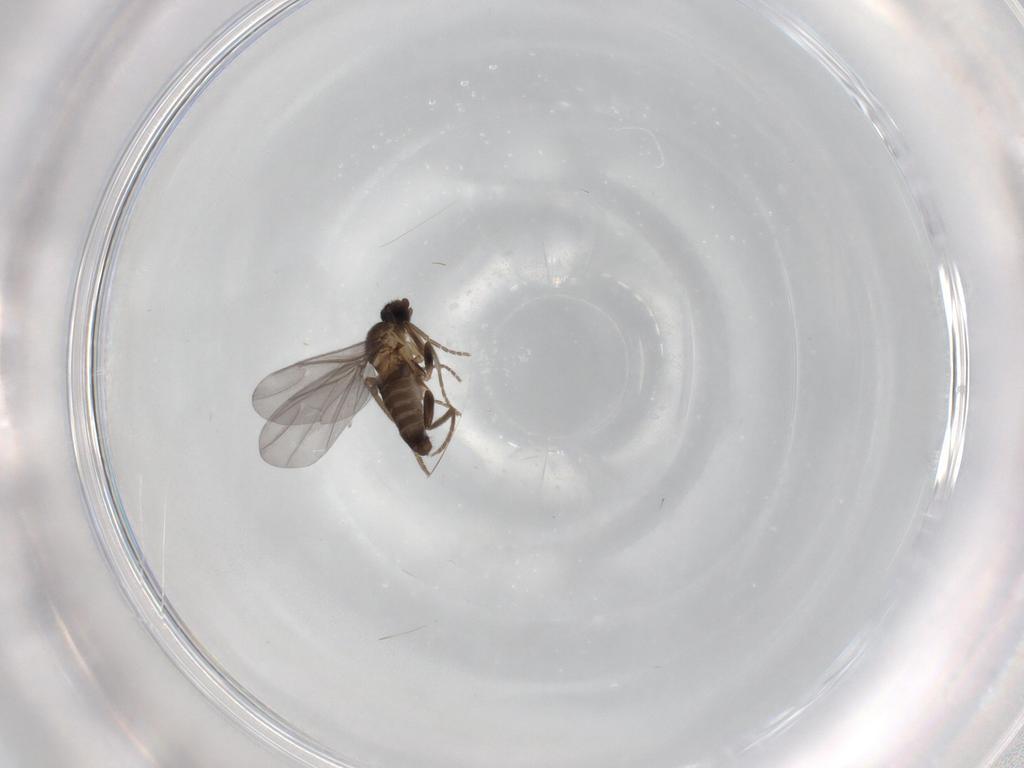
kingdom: Animalia
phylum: Arthropoda
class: Insecta
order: Diptera
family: Phoridae
